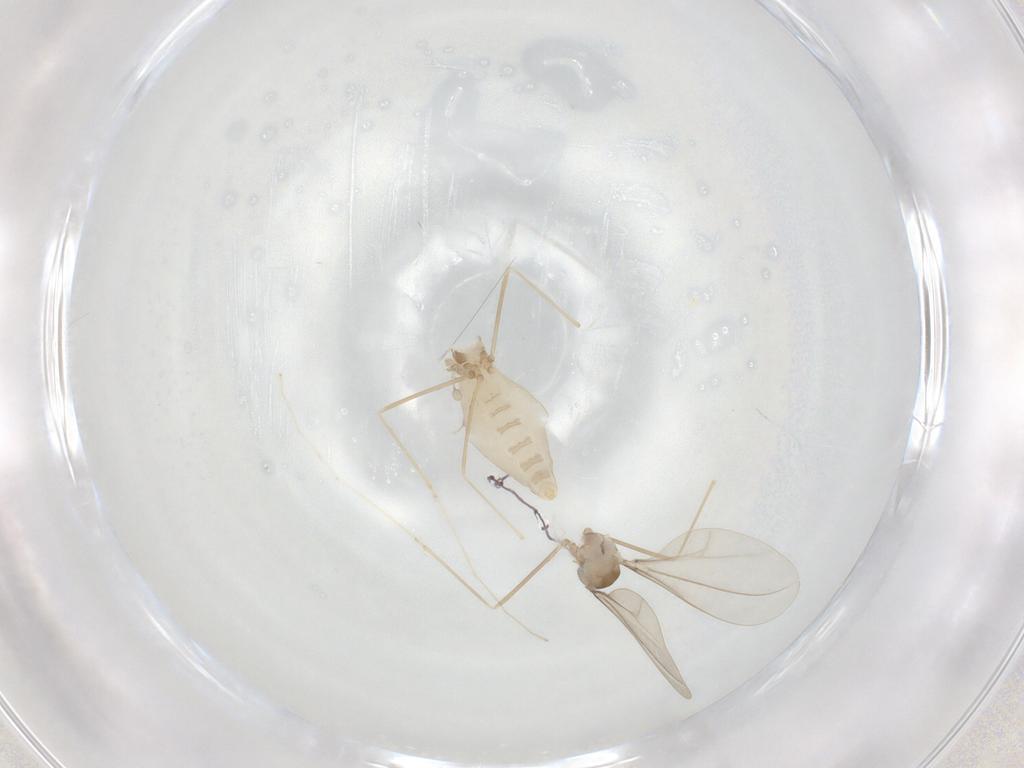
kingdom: Animalia
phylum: Arthropoda
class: Insecta
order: Diptera
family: Cecidomyiidae
